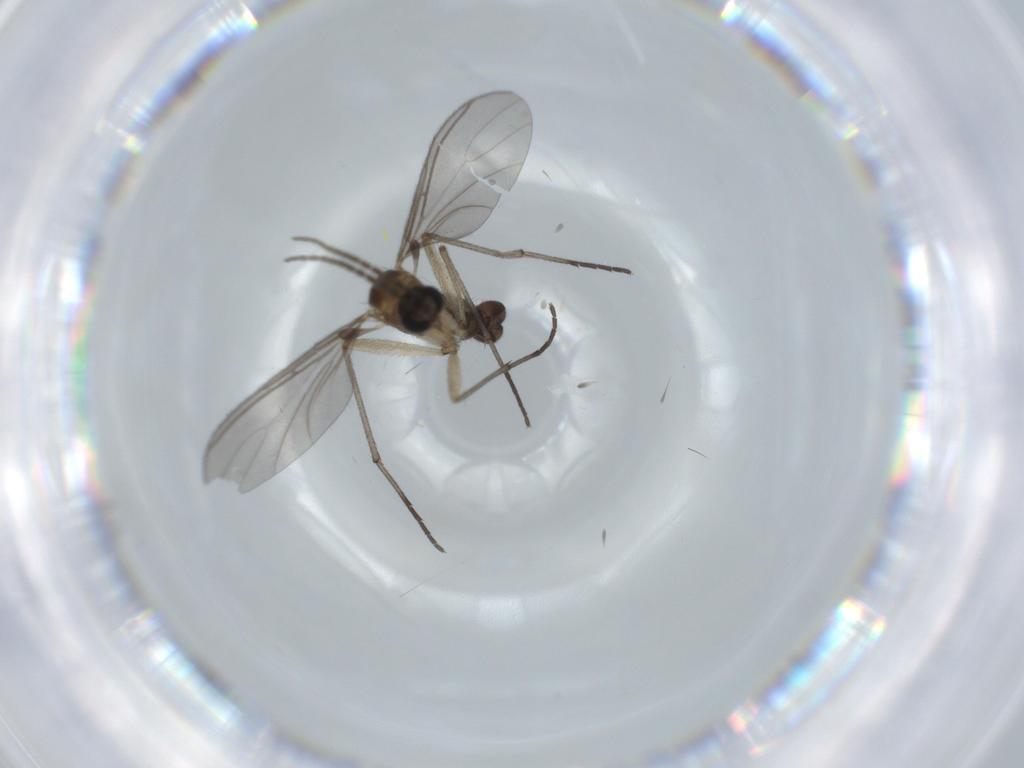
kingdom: Animalia
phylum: Arthropoda
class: Insecta
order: Diptera
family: Sciaridae
